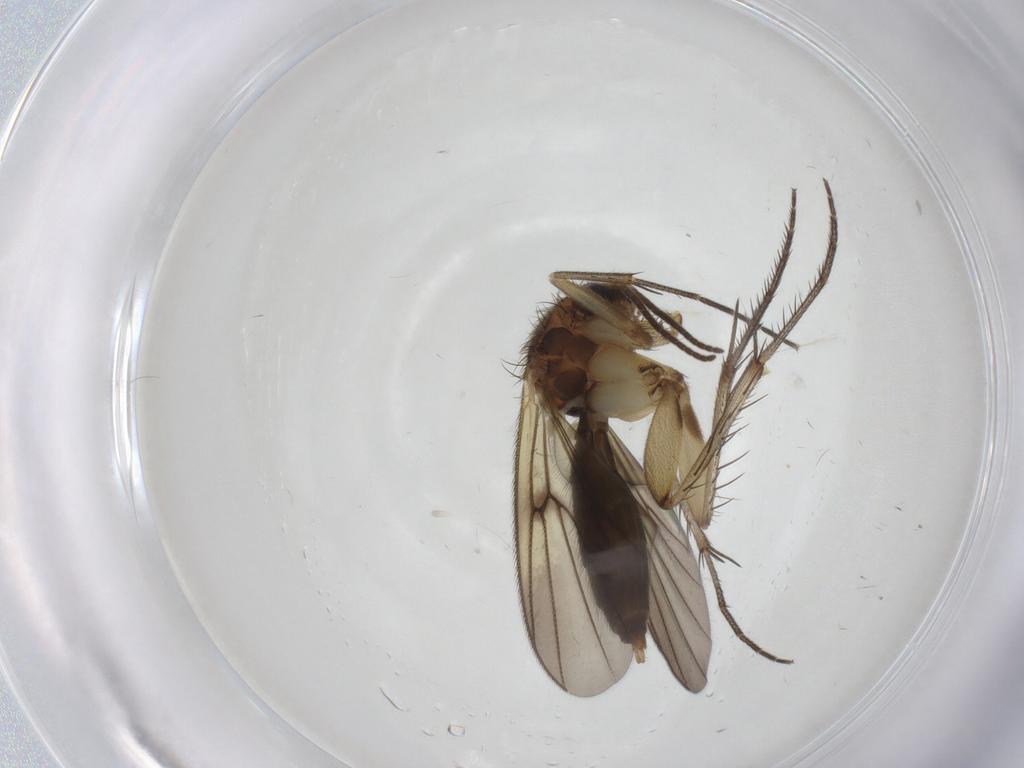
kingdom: Animalia
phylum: Arthropoda
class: Insecta
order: Diptera
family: Mycetophilidae
